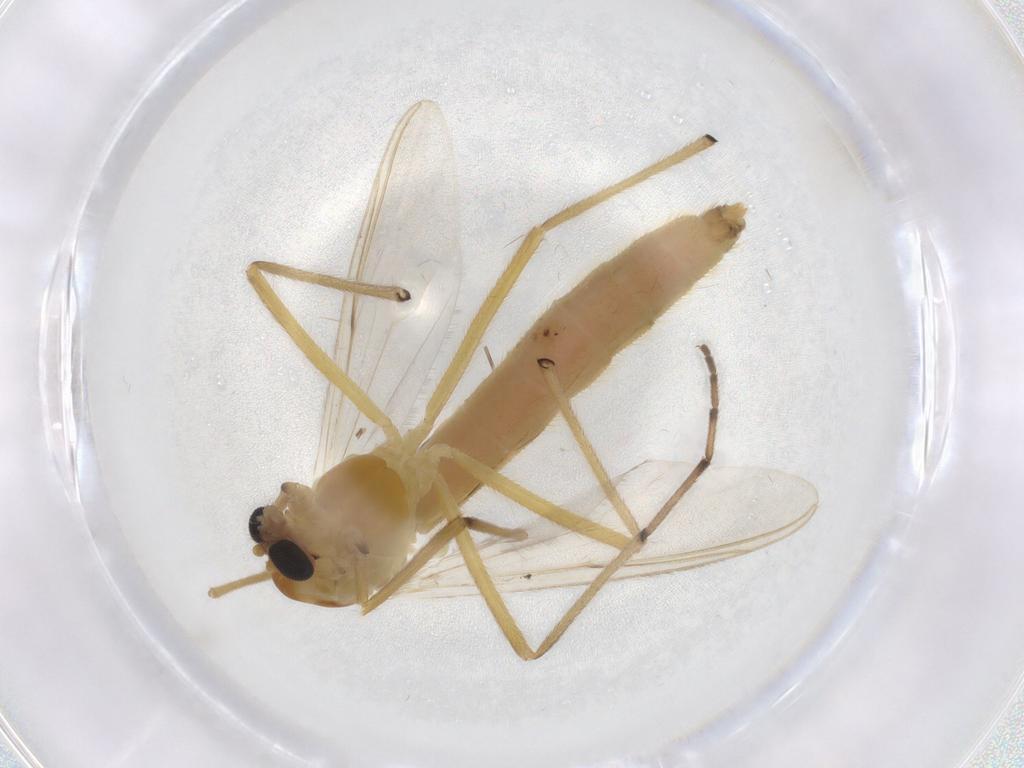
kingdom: Animalia
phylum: Arthropoda
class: Insecta
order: Diptera
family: Chironomidae
